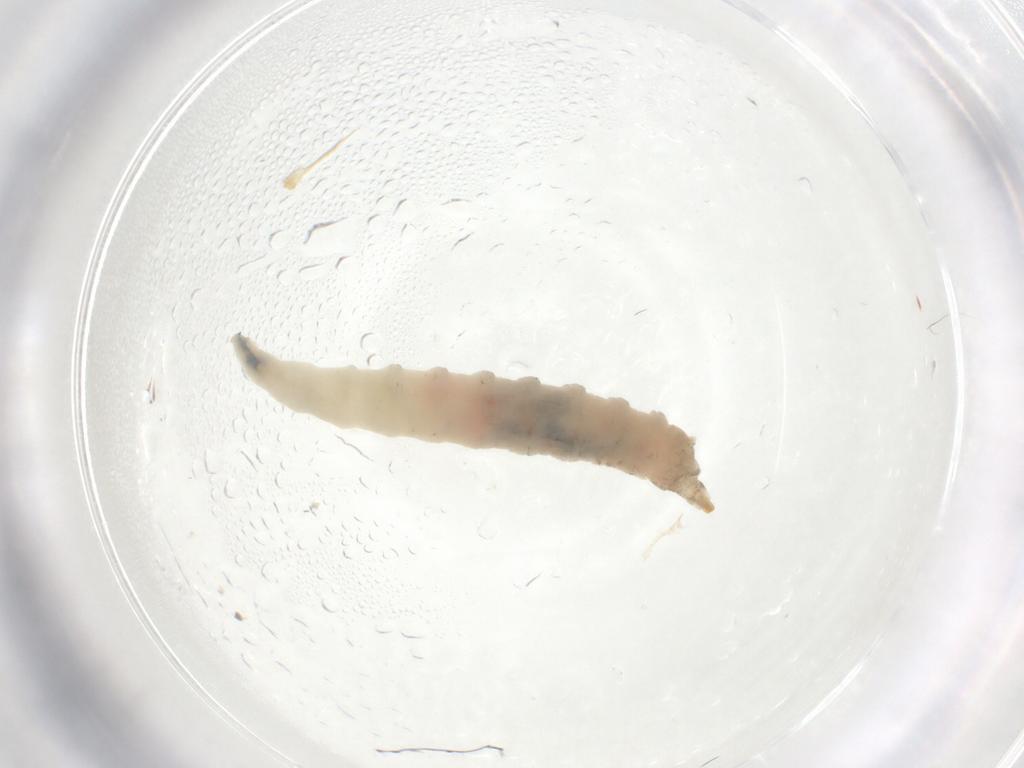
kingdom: Animalia
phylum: Arthropoda
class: Insecta
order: Diptera
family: Drosophilidae
